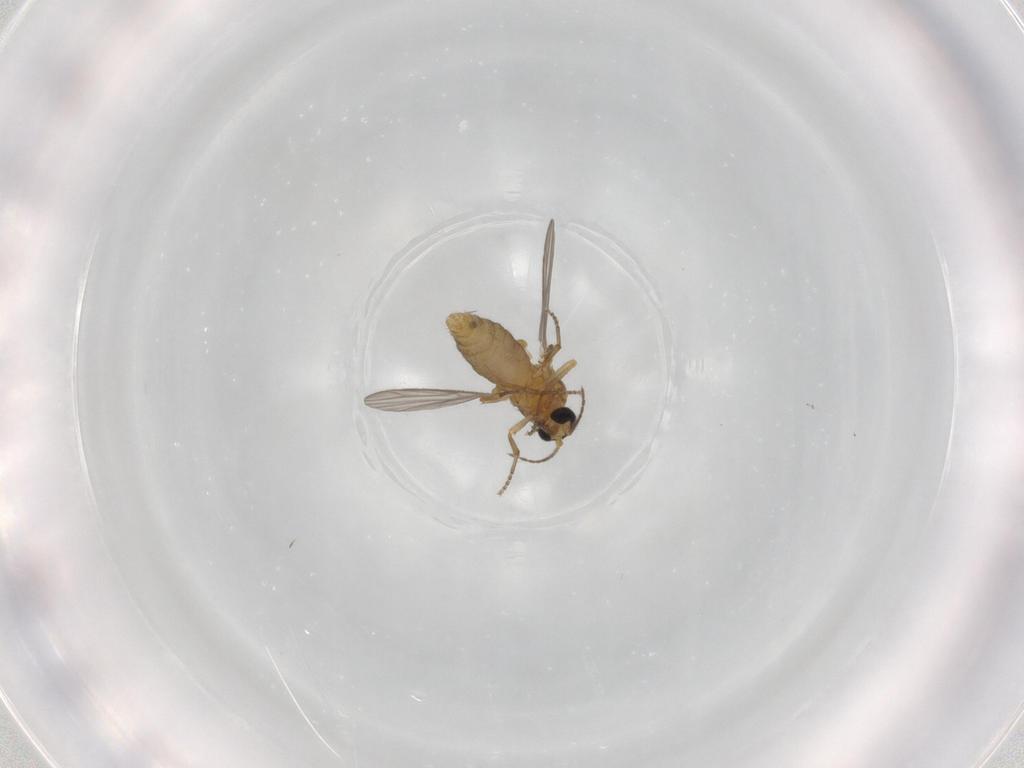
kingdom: Animalia
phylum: Arthropoda
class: Insecta
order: Diptera
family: Ceratopogonidae
